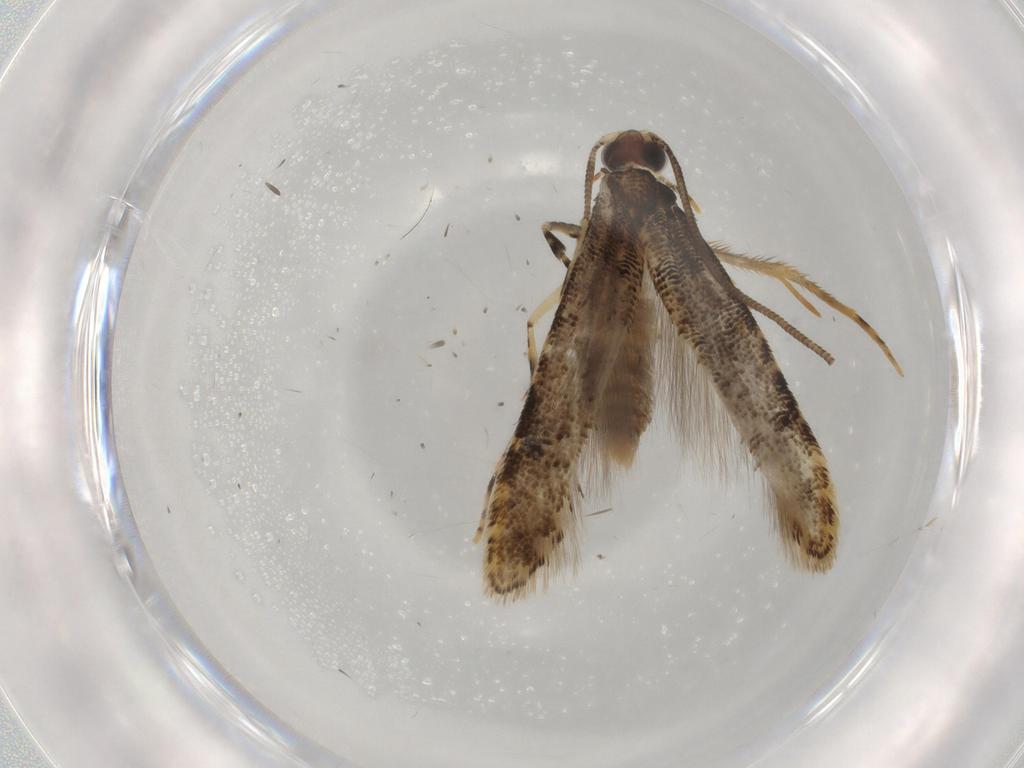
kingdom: Animalia
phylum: Arthropoda
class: Insecta
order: Lepidoptera
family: Tineidae
